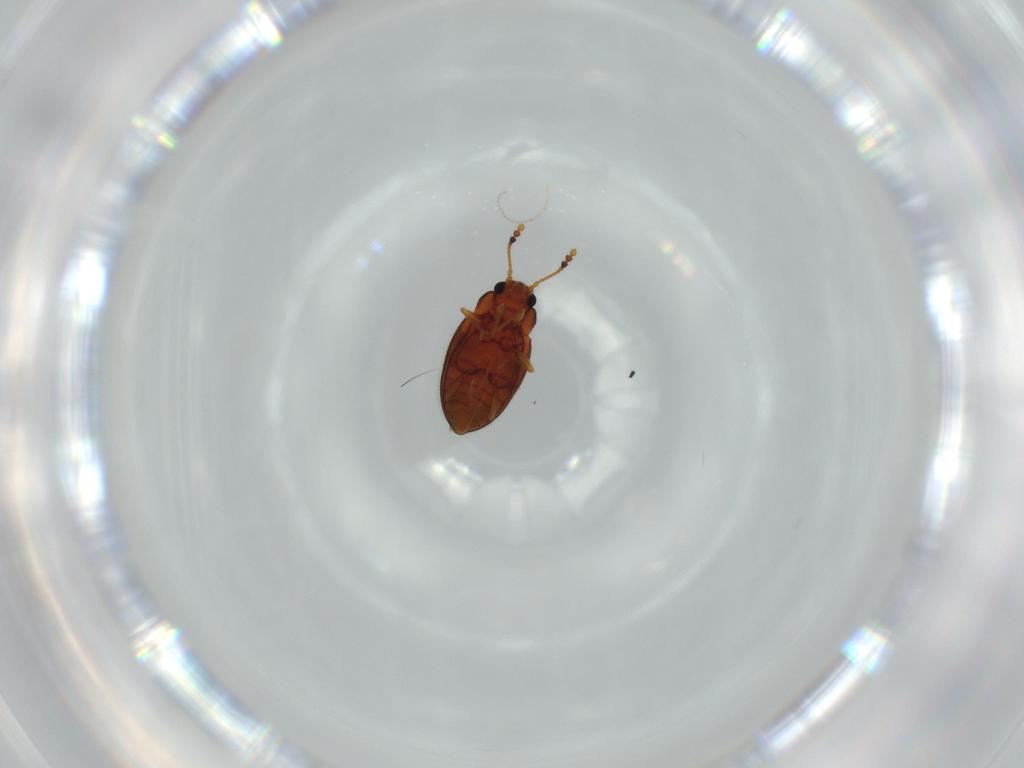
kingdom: Animalia
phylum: Arthropoda
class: Insecta
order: Coleoptera
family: Erotylidae
